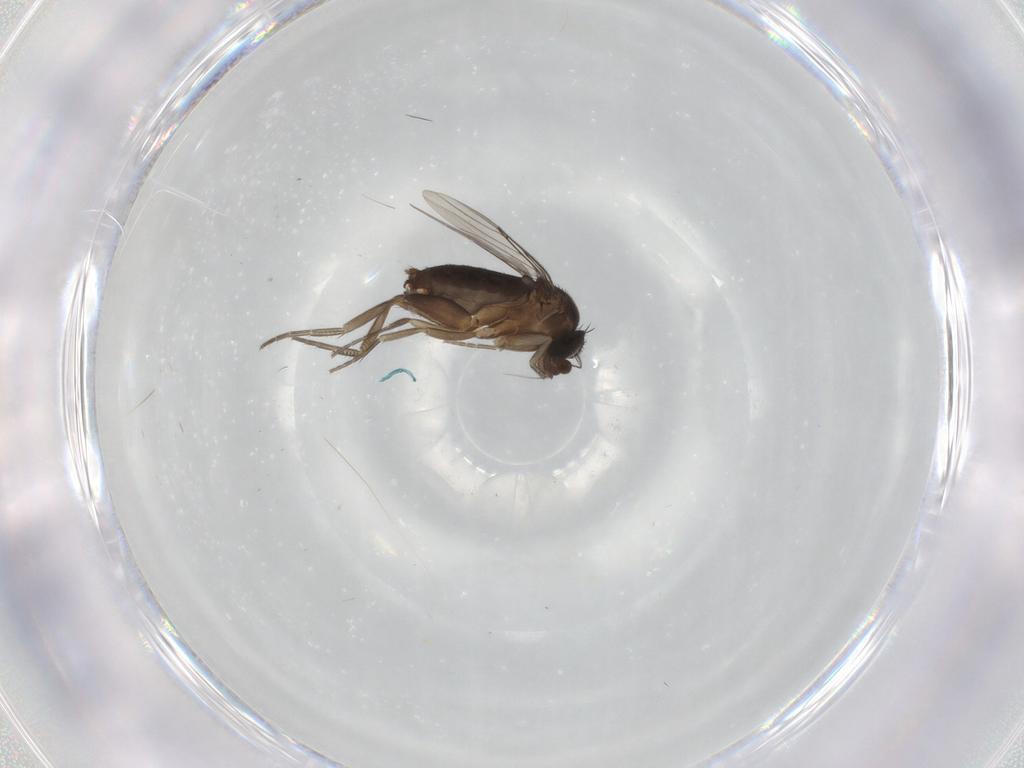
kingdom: Animalia
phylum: Arthropoda
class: Insecta
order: Diptera
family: Phoridae
